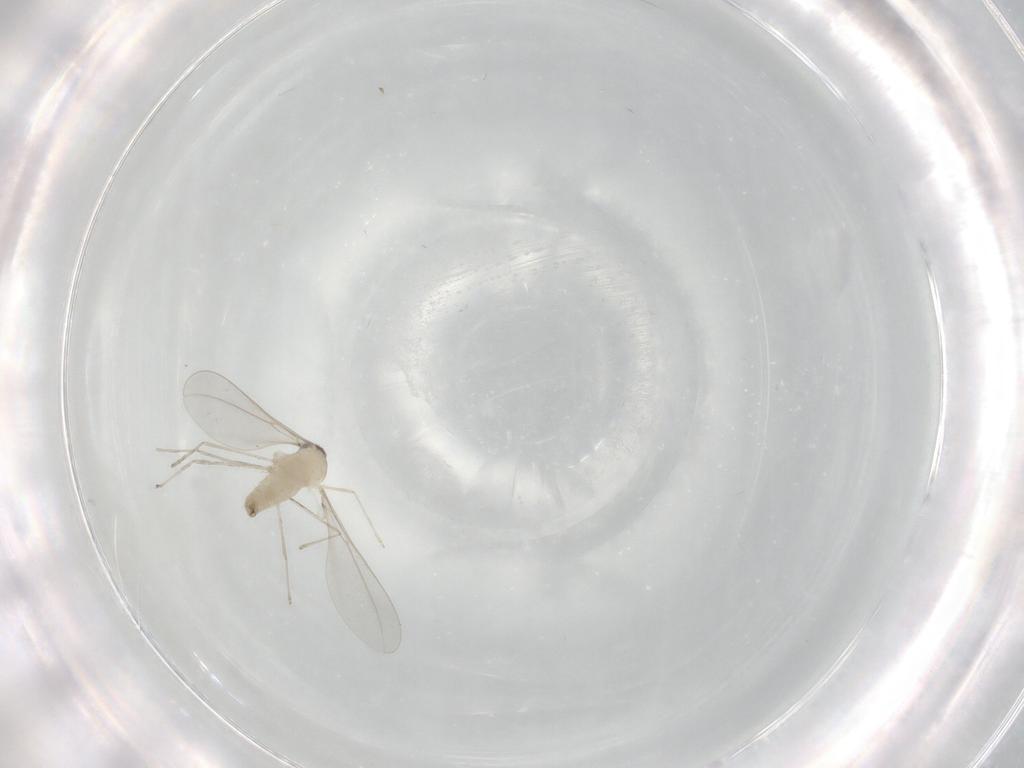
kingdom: Animalia
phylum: Arthropoda
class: Insecta
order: Diptera
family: Cecidomyiidae
